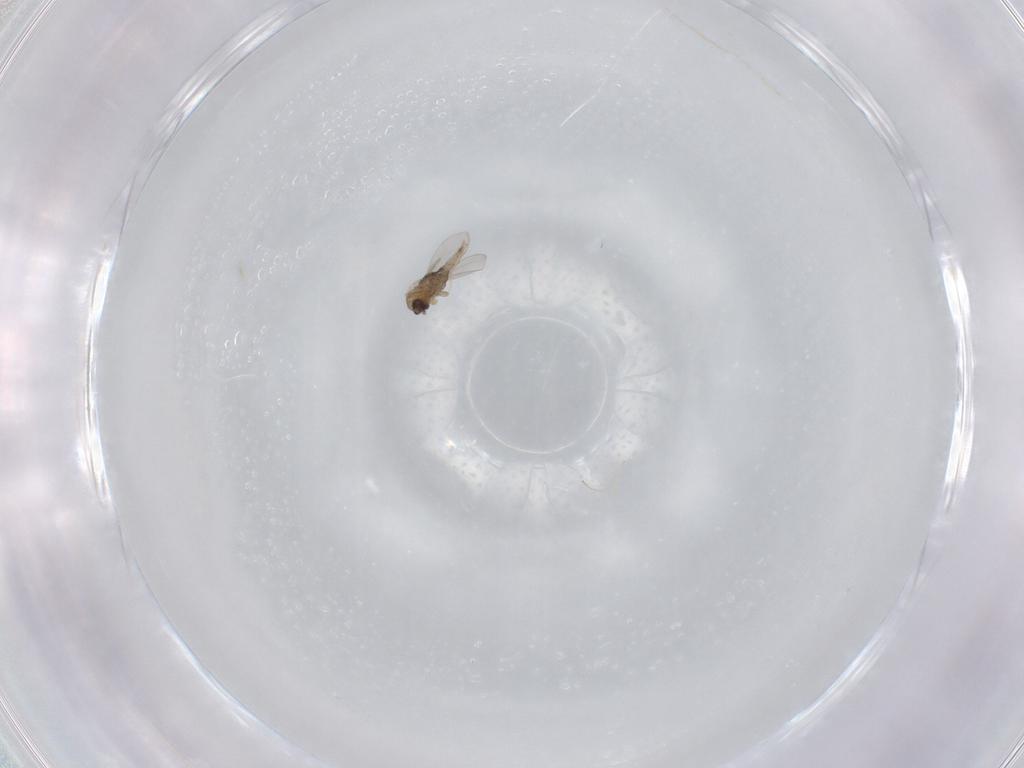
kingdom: Animalia
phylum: Arthropoda
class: Insecta
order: Diptera
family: Cecidomyiidae
